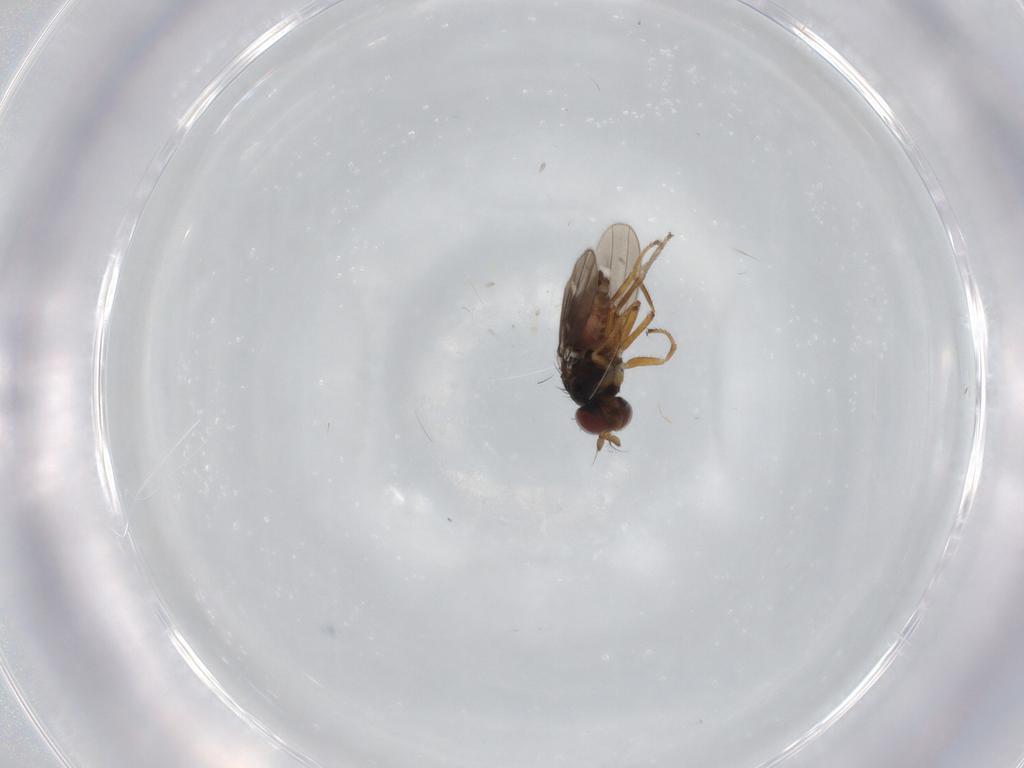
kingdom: Animalia
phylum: Arthropoda
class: Insecta
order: Diptera
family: Ephydridae
